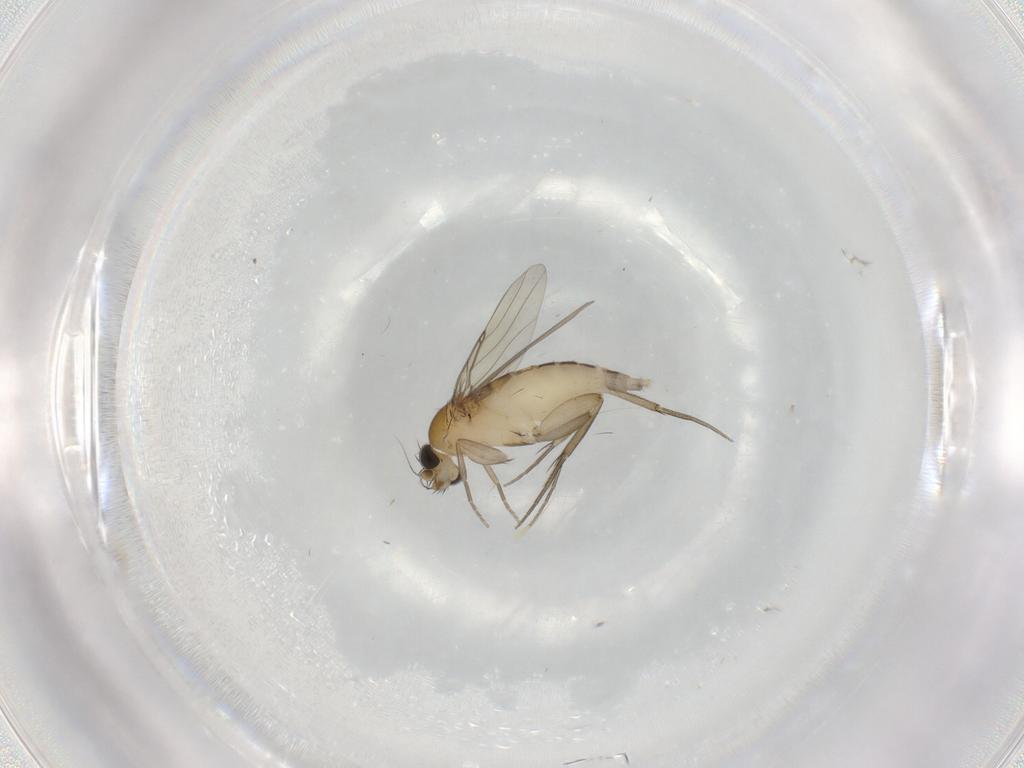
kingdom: Animalia
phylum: Arthropoda
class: Insecta
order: Diptera
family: Phoridae
